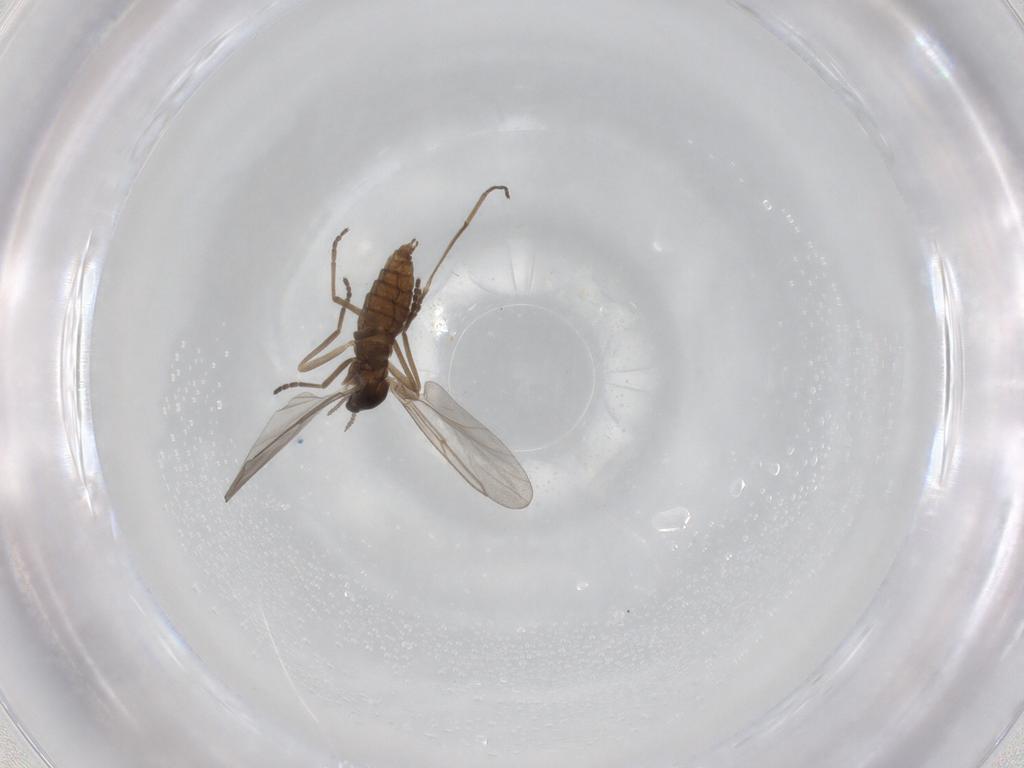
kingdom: Animalia
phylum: Arthropoda
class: Insecta
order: Diptera
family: Cecidomyiidae
